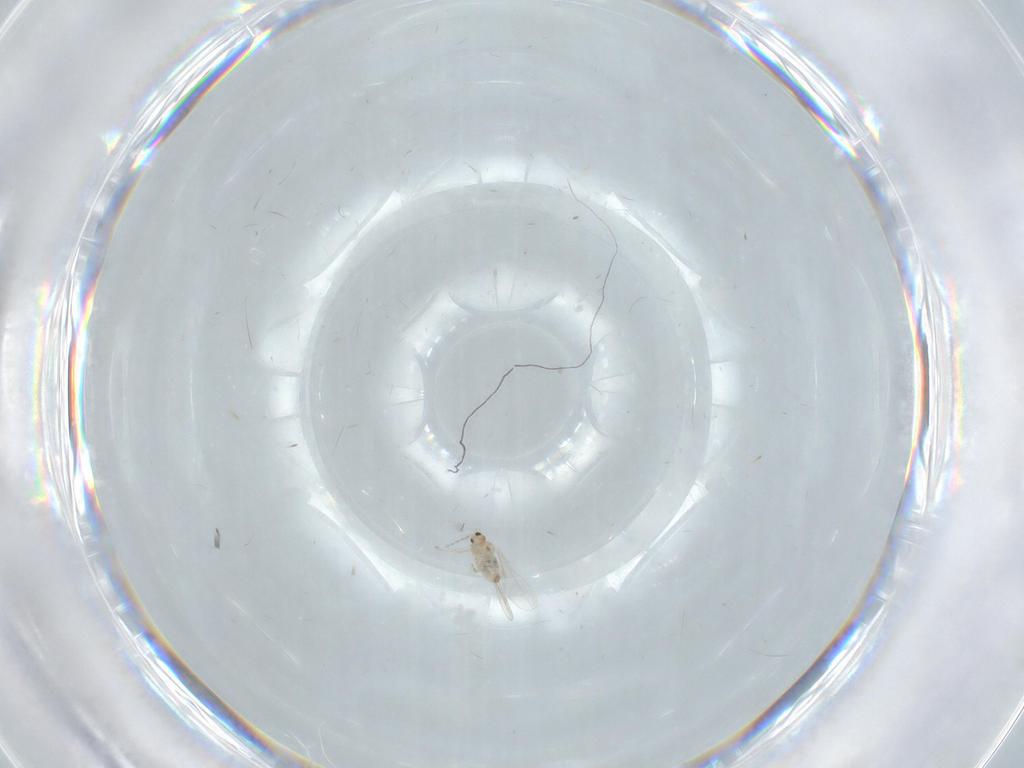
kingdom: Animalia
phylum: Arthropoda
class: Insecta
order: Diptera
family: Cecidomyiidae
